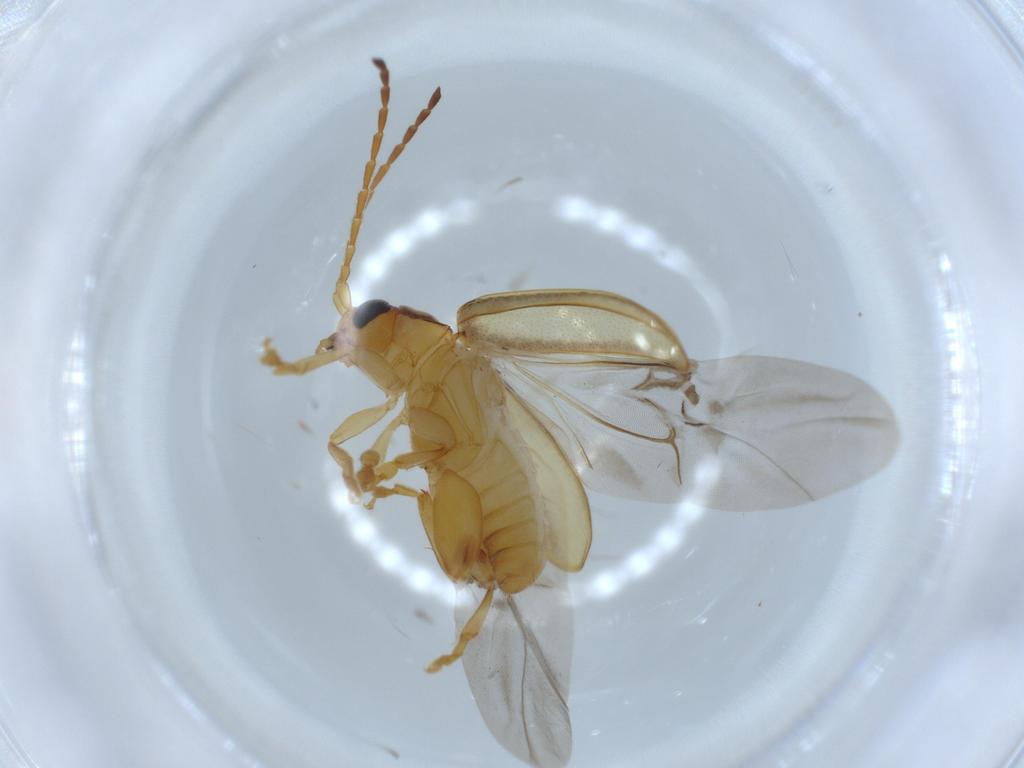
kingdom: Animalia
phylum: Arthropoda
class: Insecta
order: Coleoptera
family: Chrysomelidae
